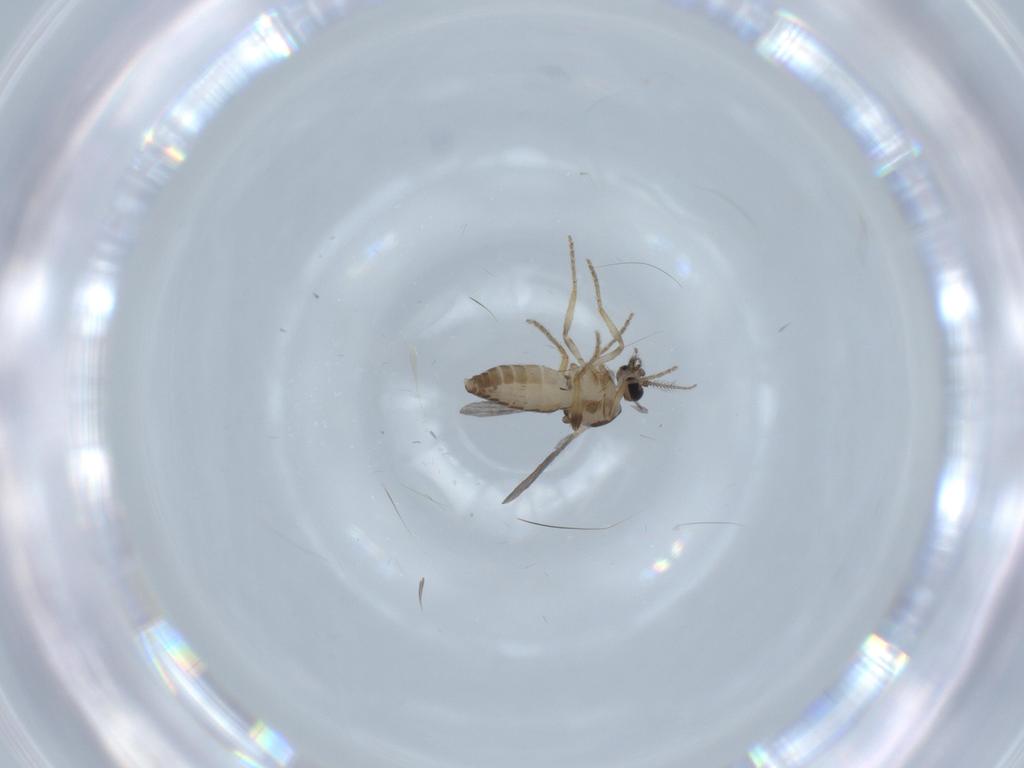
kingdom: Animalia
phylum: Arthropoda
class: Insecta
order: Diptera
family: Ceratopogonidae
